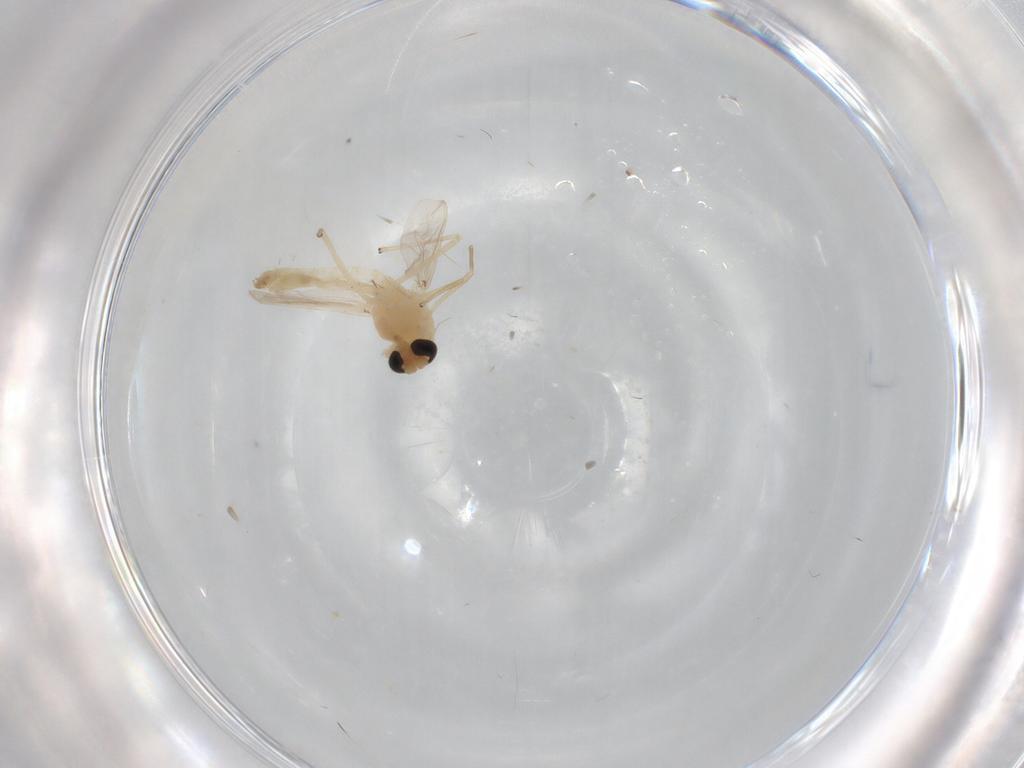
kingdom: Animalia
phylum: Arthropoda
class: Insecta
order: Diptera
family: Chironomidae
